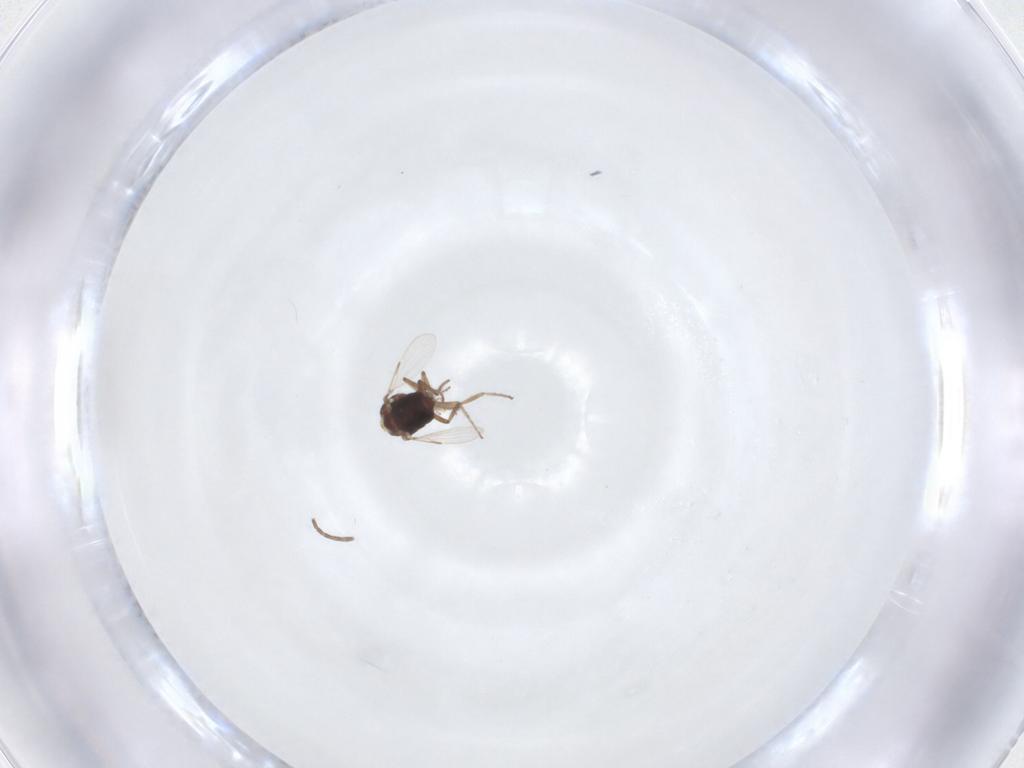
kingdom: Animalia
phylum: Arthropoda
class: Insecta
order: Diptera
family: Ceratopogonidae
